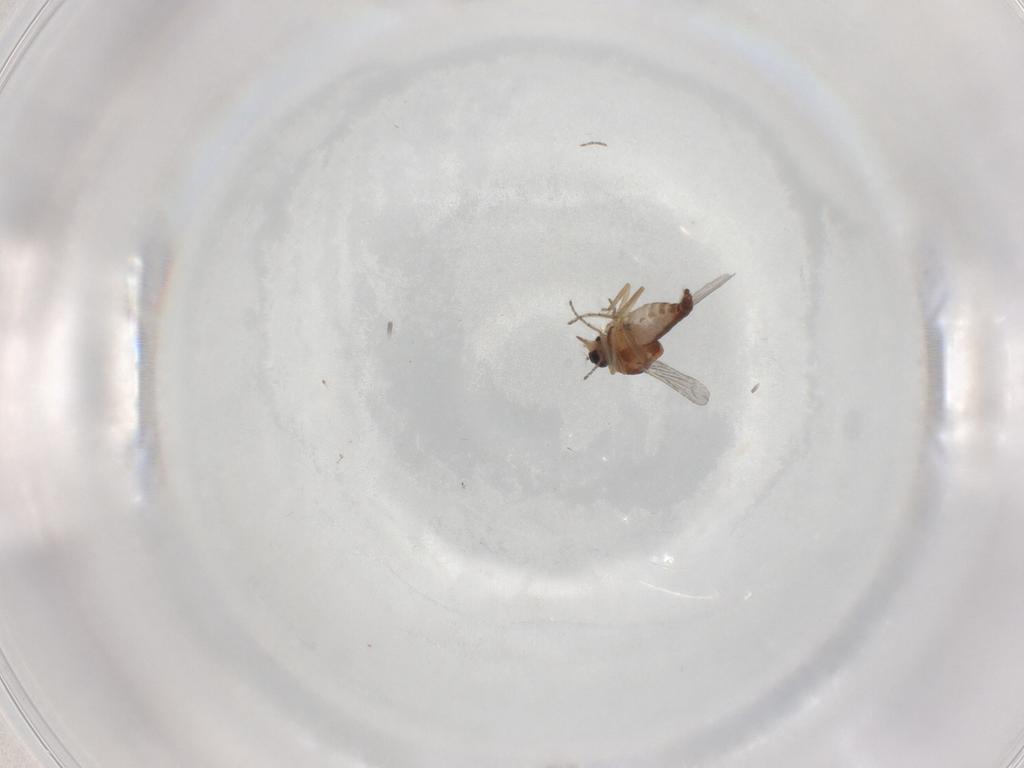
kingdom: Animalia
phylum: Arthropoda
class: Insecta
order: Diptera
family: Ceratopogonidae
